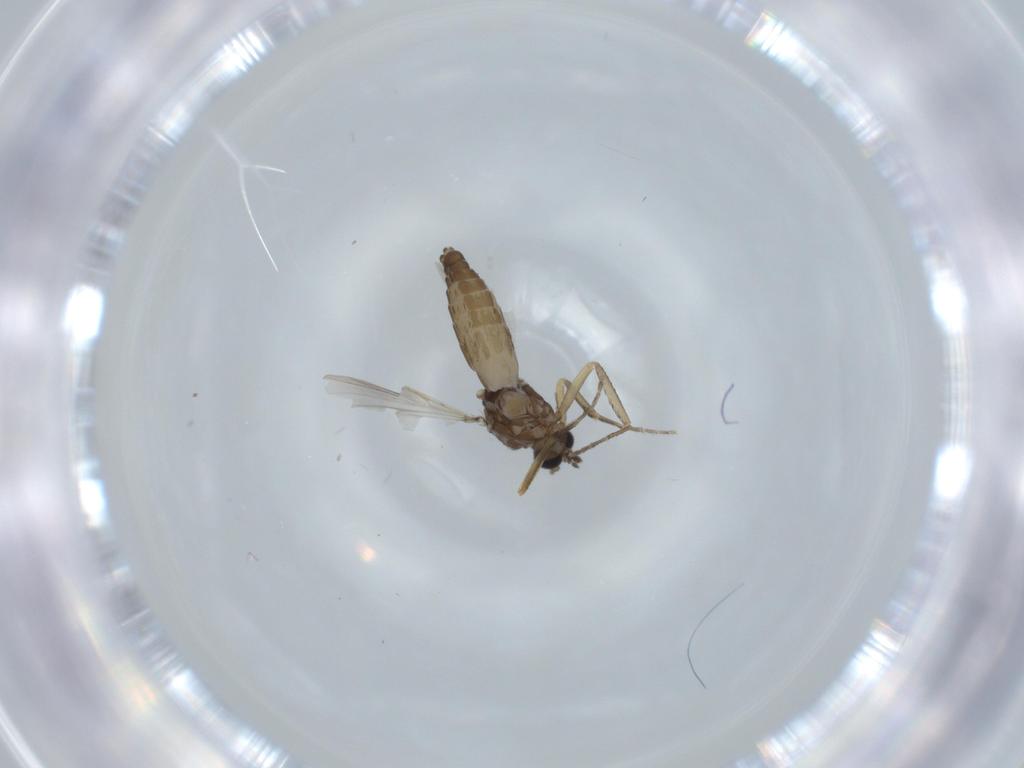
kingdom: Animalia
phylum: Arthropoda
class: Insecta
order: Diptera
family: Ceratopogonidae
